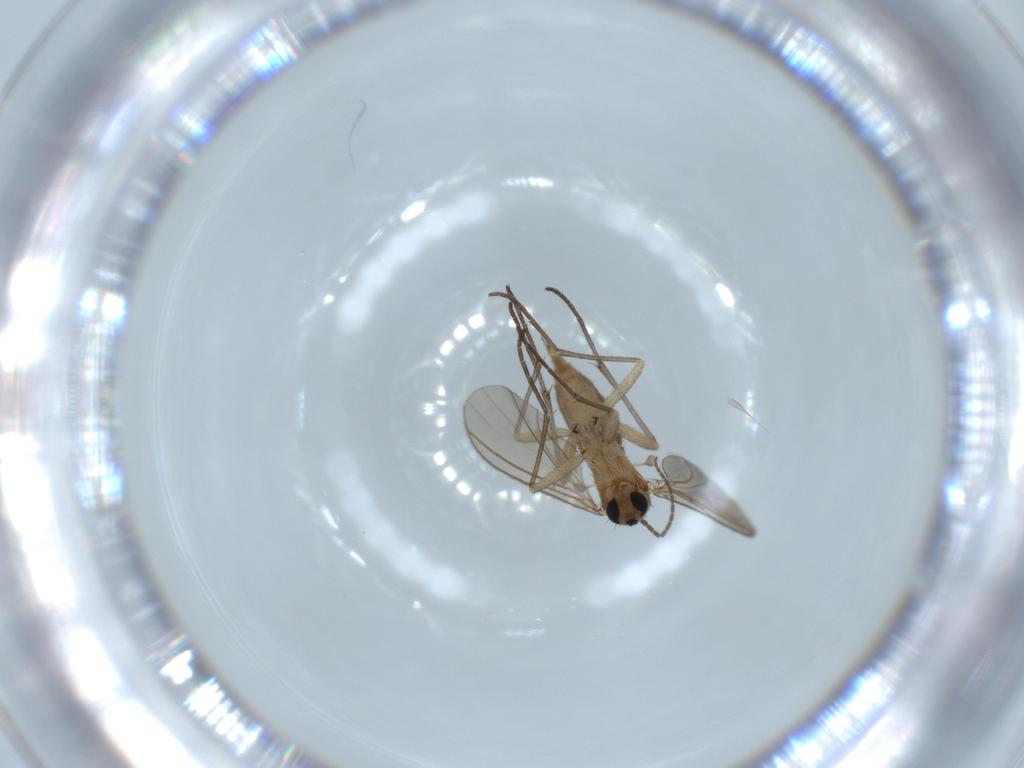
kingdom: Animalia
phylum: Arthropoda
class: Insecta
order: Diptera
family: Sciaridae
